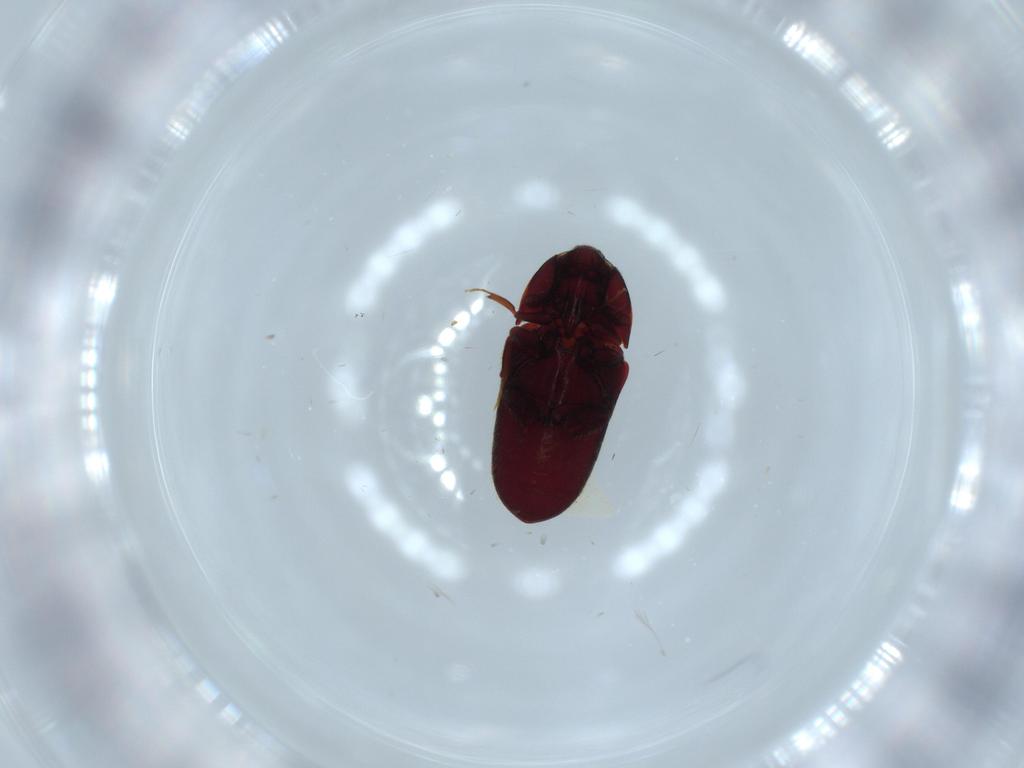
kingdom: Animalia
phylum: Arthropoda
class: Insecta
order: Coleoptera
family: Throscidae
